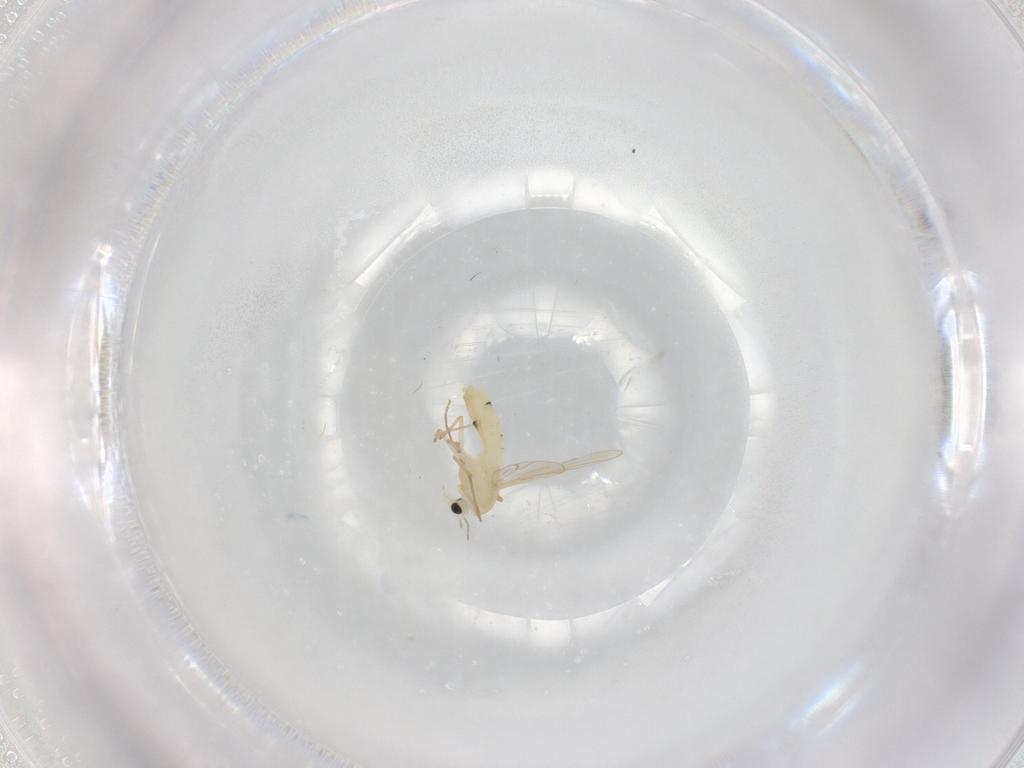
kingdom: Animalia
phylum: Arthropoda
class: Insecta
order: Diptera
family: Chironomidae
